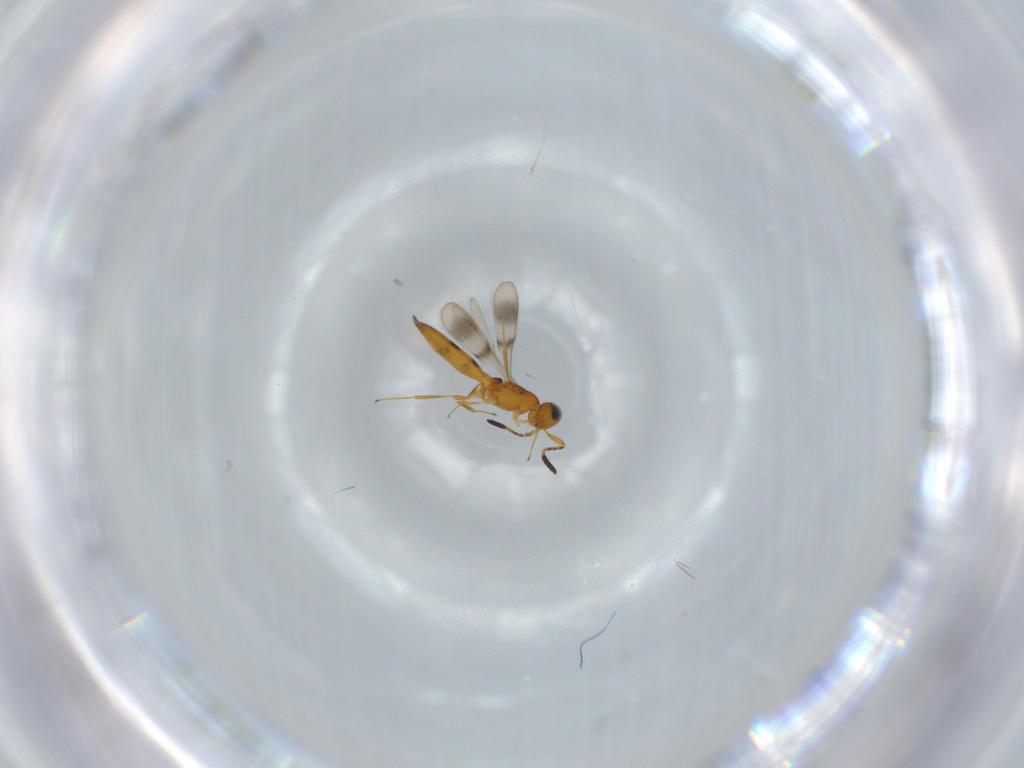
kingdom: Animalia
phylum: Arthropoda
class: Insecta
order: Hymenoptera
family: Scelionidae
